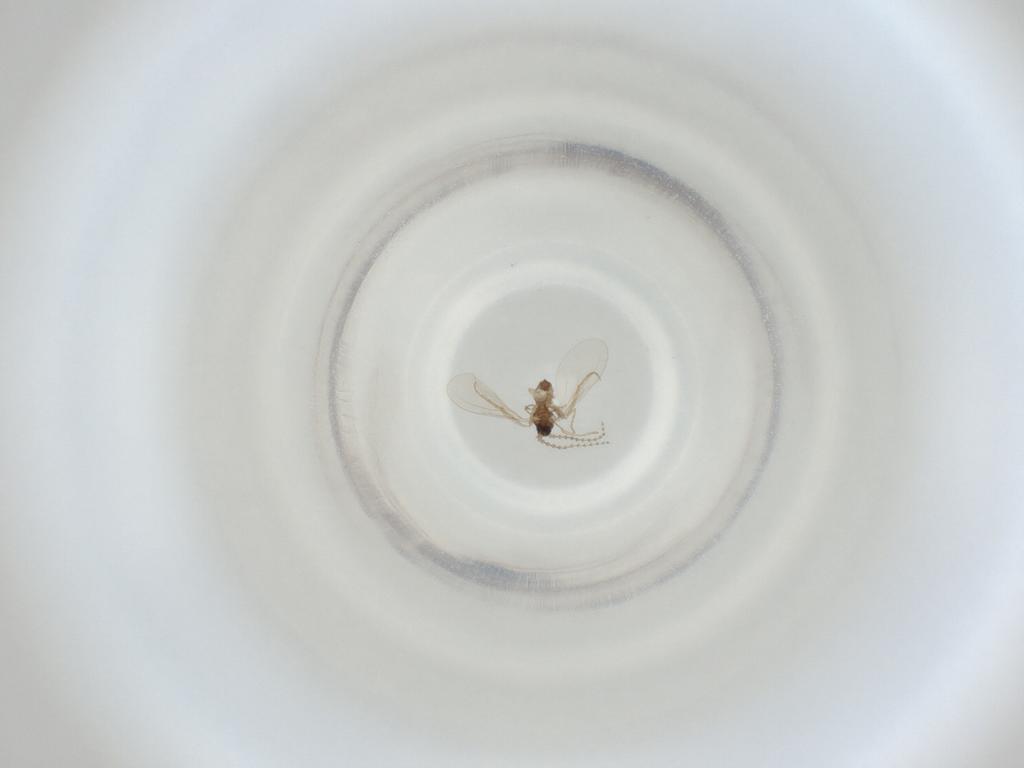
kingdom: Animalia
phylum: Arthropoda
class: Insecta
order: Diptera
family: Cecidomyiidae
